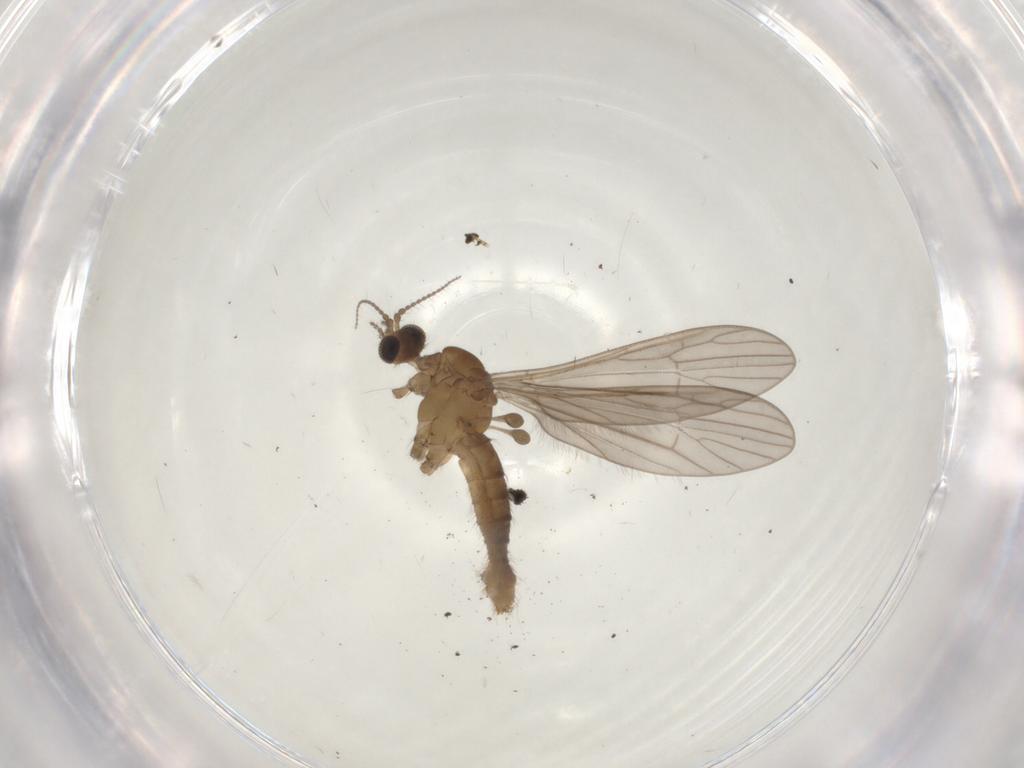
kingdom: Animalia
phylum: Arthropoda
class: Insecta
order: Diptera
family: Ceratopogonidae
